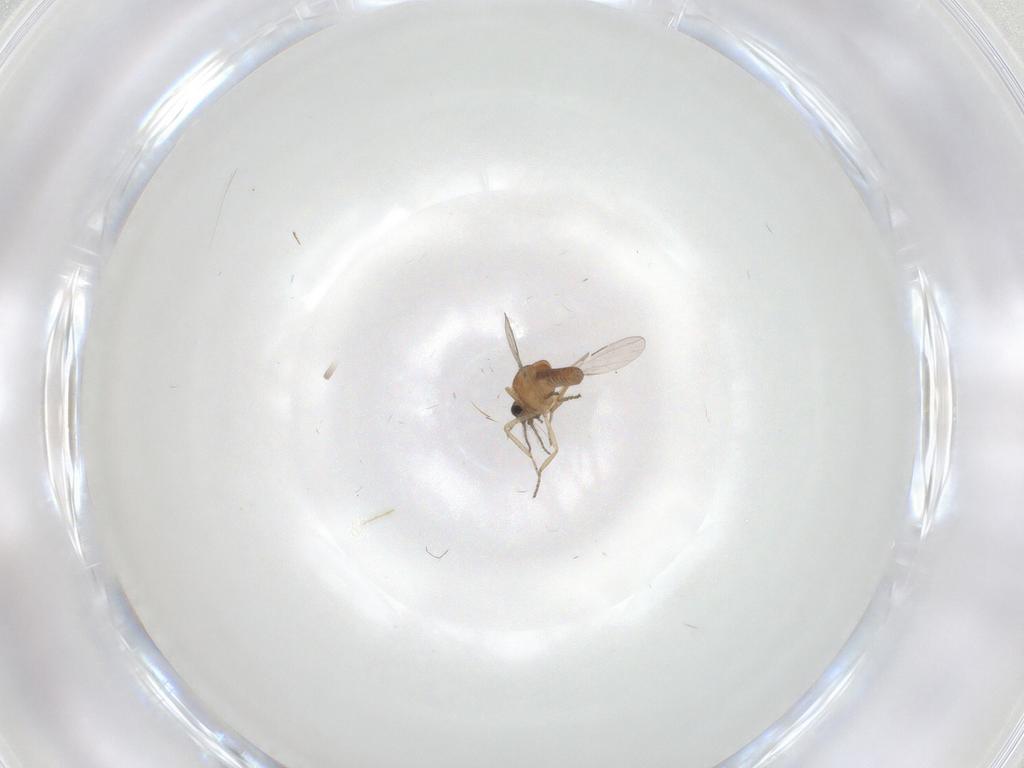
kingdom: Animalia
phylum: Arthropoda
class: Insecta
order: Diptera
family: Ceratopogonidae
